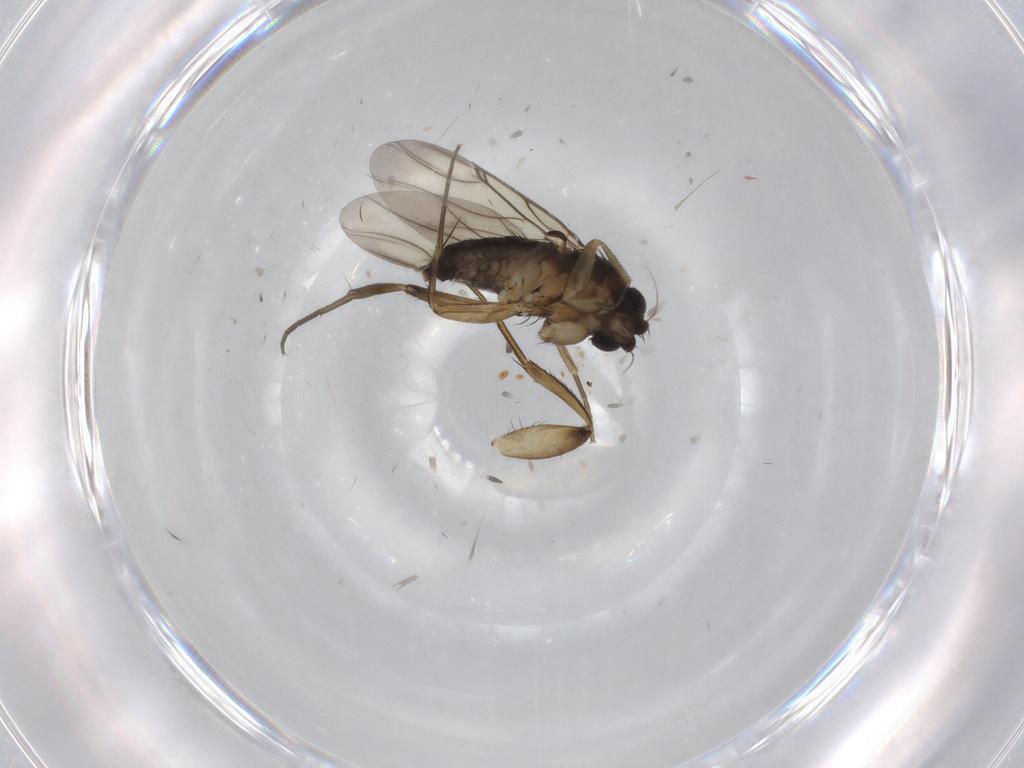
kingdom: Animalia
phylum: Arthropoda
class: Insecta
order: Diptera
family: Phoridae
